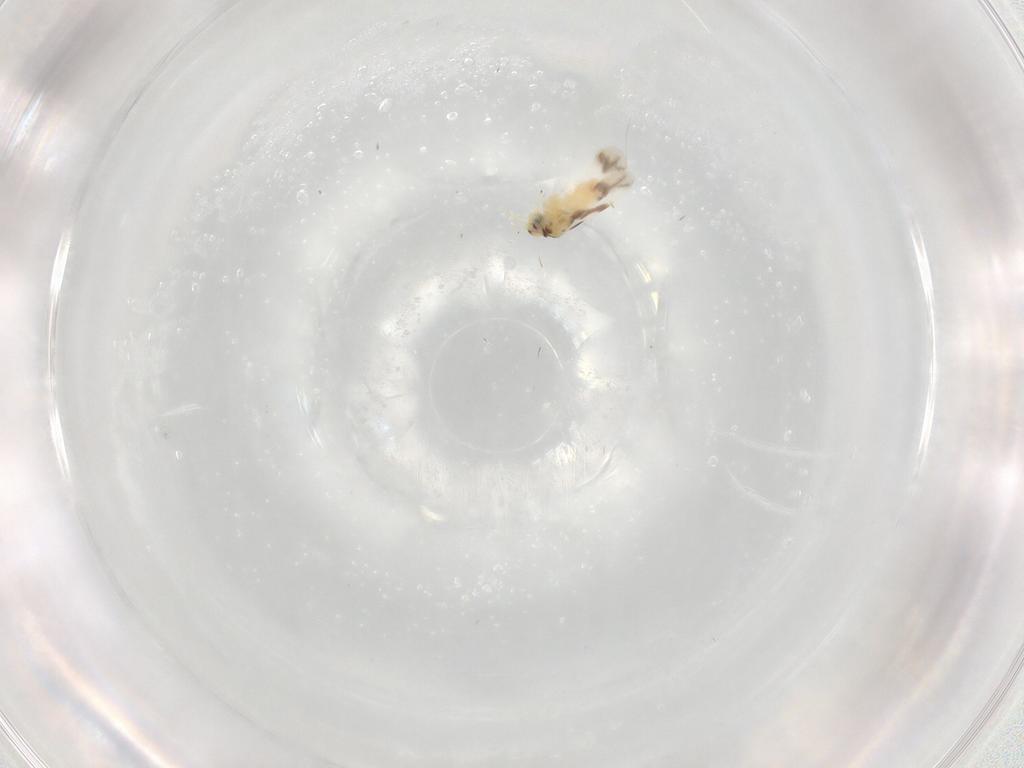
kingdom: Animalia
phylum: Arthropoda
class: Insecta
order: Hemiptera
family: Aleyrodidae
